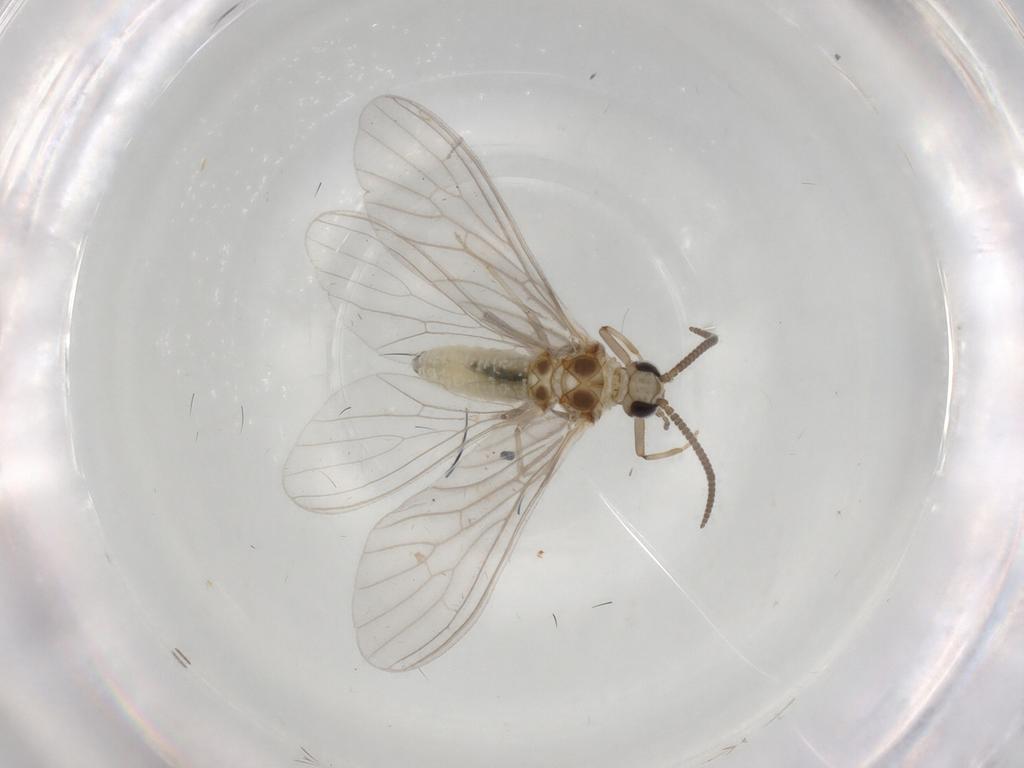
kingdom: Animalia
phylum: Arthropoda
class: Insecta
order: Neuroptera
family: Coniopterygidae
